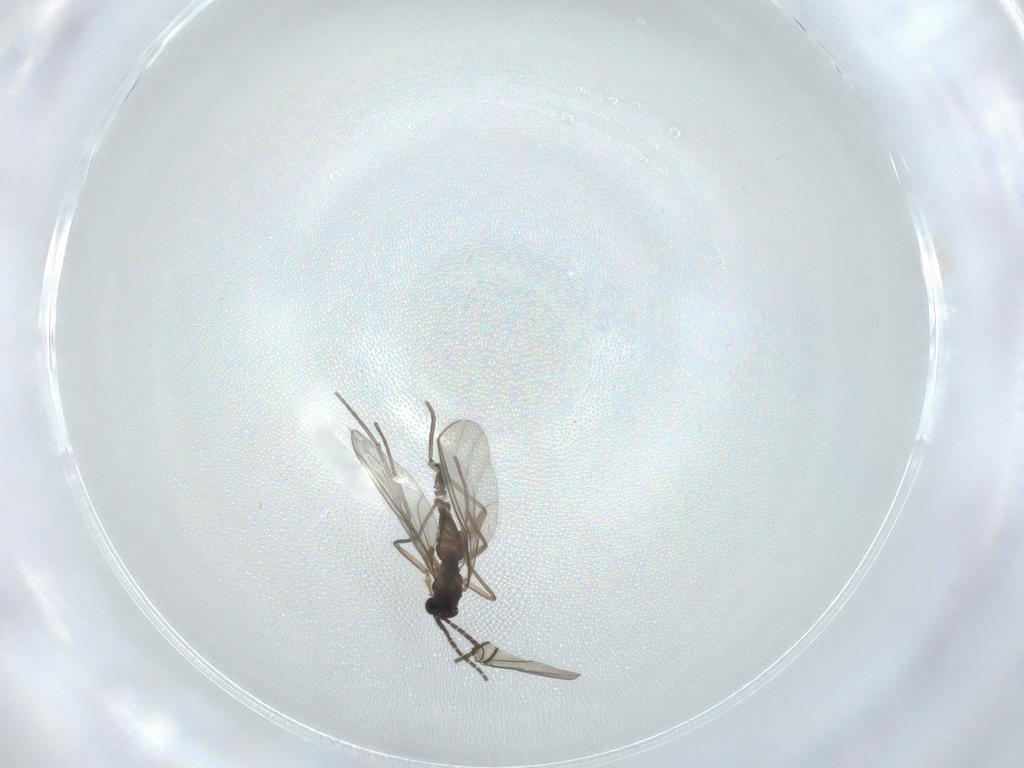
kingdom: Animalia
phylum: Arthropoda
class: Insecta
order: Diptera
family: Sciaridae
